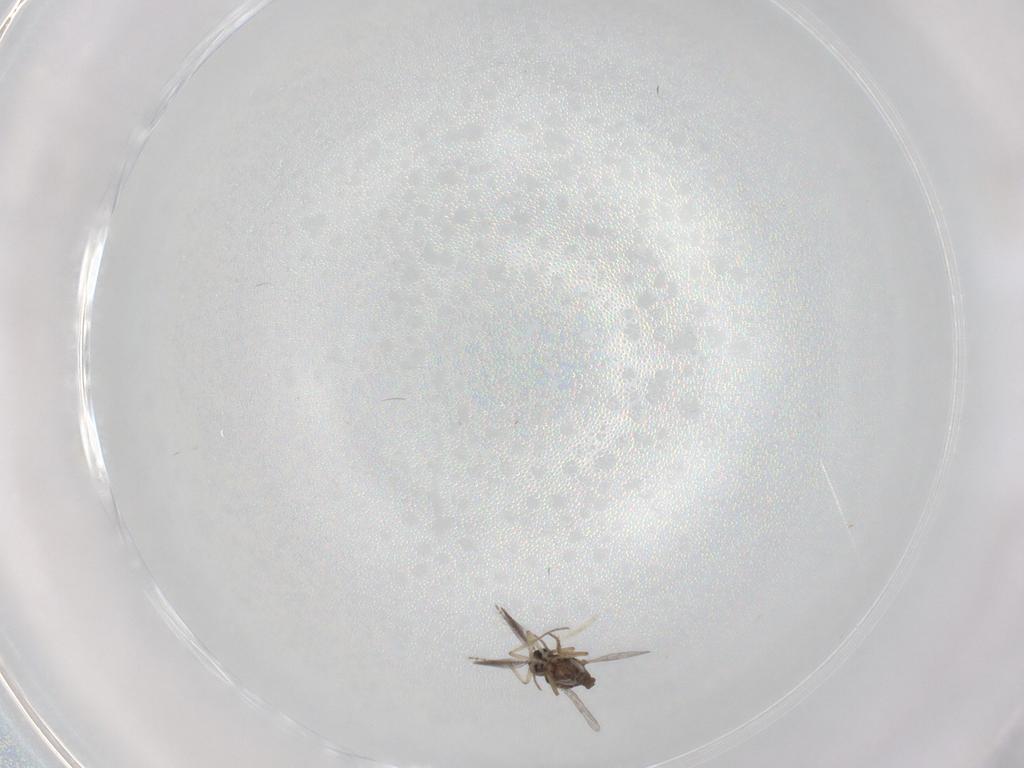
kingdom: Animalia
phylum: Arthropoda
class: Insecta
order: Diptera
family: Ceratopogonidae
